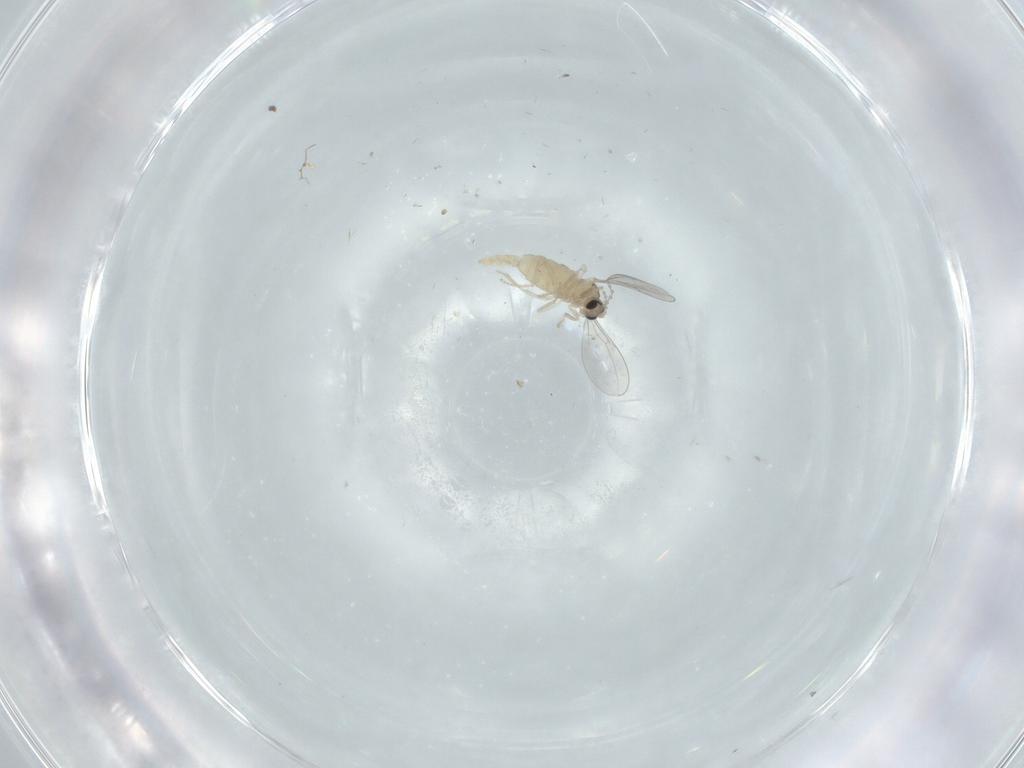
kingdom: Animalia
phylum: Arthropoda
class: Insecta
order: Diptera
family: Cecidomyiidae
